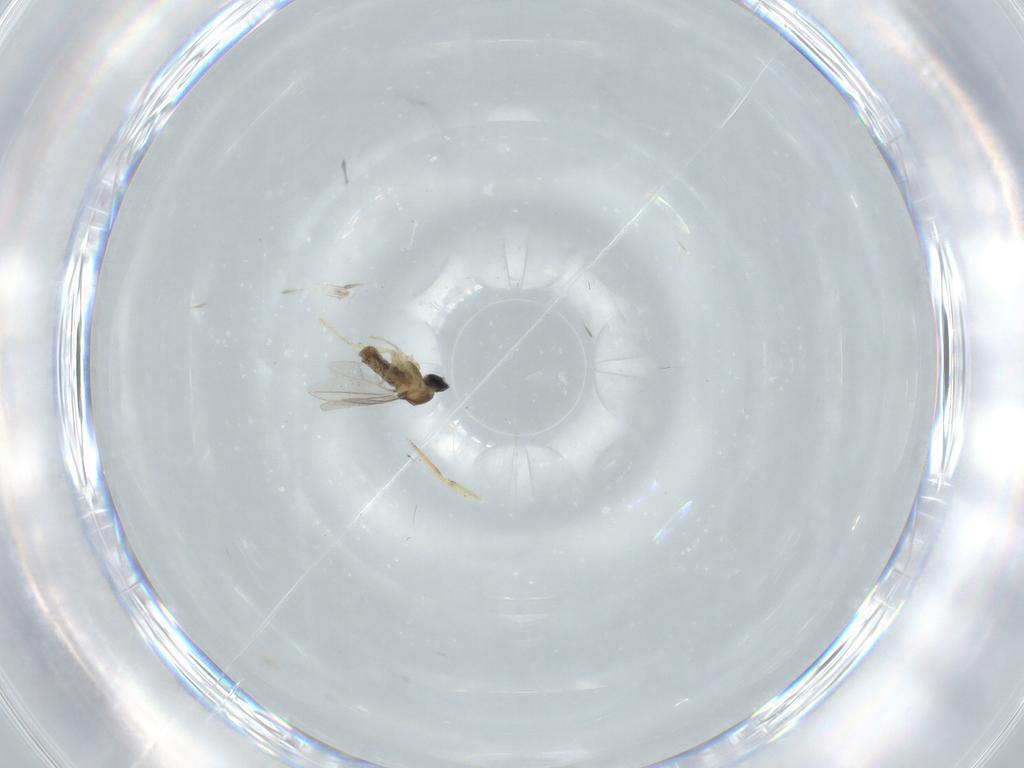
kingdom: Animalia
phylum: Arthropoda
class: Insecta
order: Diptera
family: Cecidomyiidae
